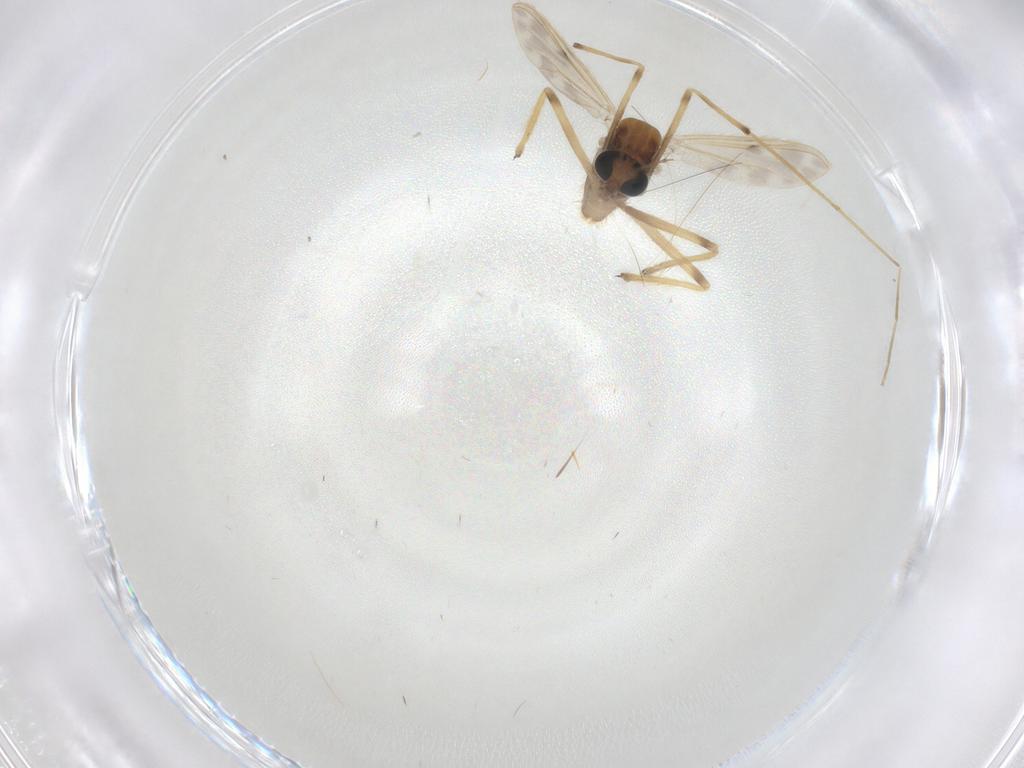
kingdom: Animalia
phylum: Arthropoda
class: Insecta
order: Diptera
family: Chironomidae
